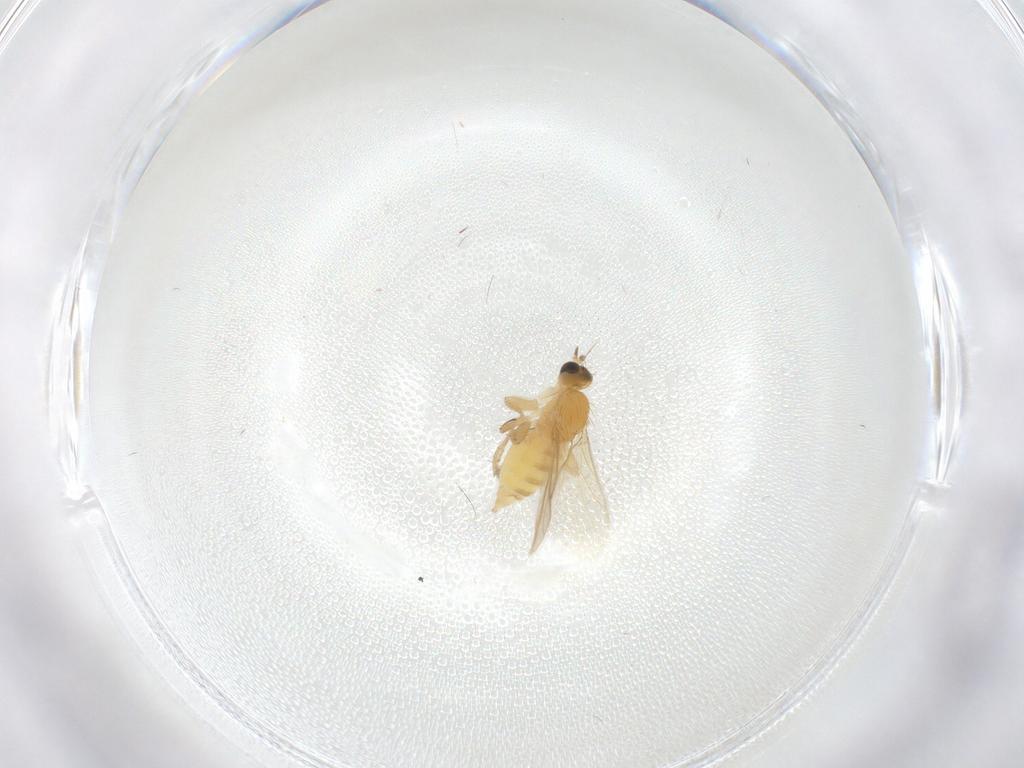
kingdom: Animalia
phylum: Arthropoda
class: Insecta
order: Diptera
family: Hybotidae
